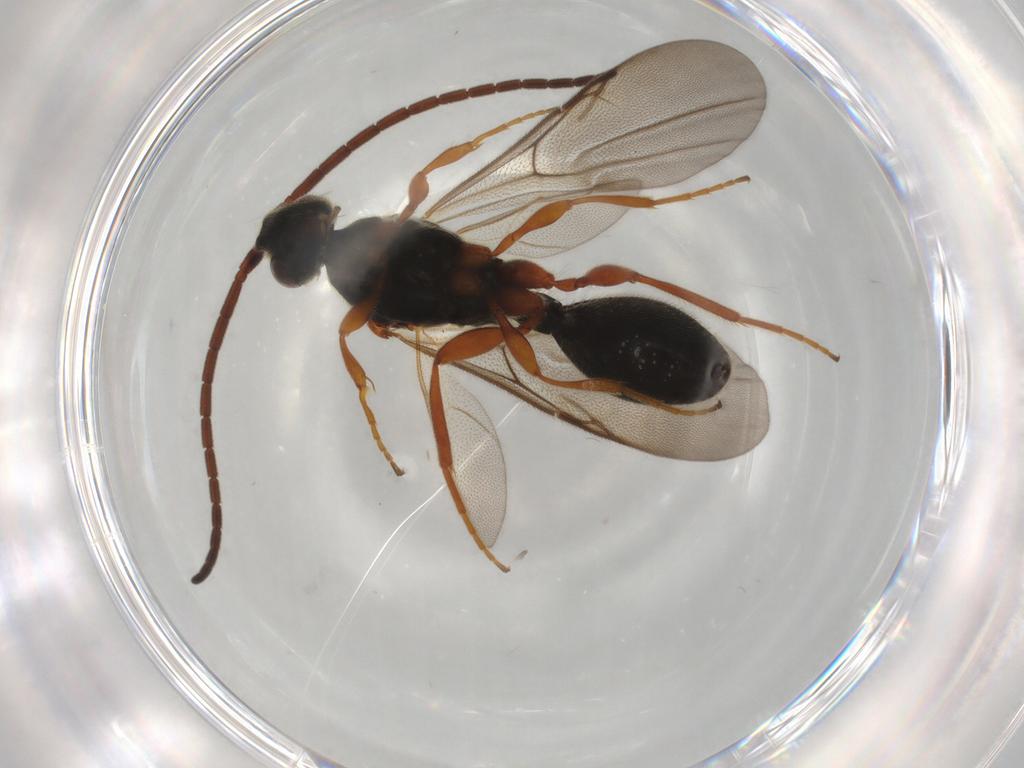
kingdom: Animalia
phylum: Arthropoda
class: Insecta
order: Hymenoptera
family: Diapriidae
